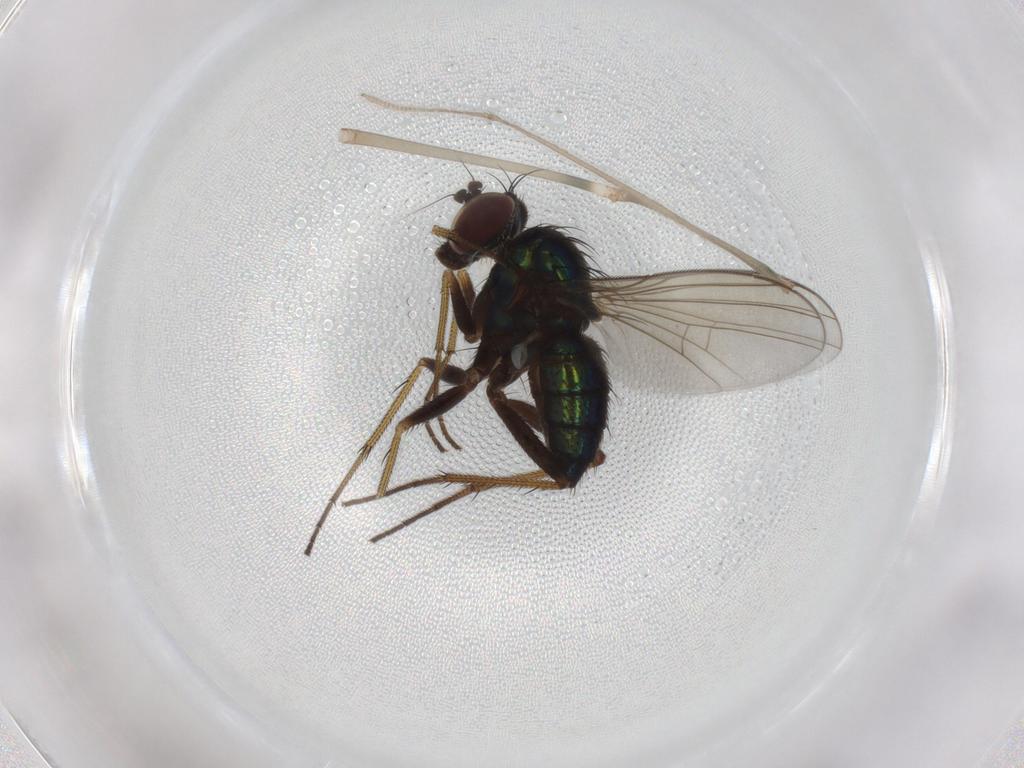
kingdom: Animalia
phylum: Arthropoda
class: Insecta
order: Diptera
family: Dolichopodidae
